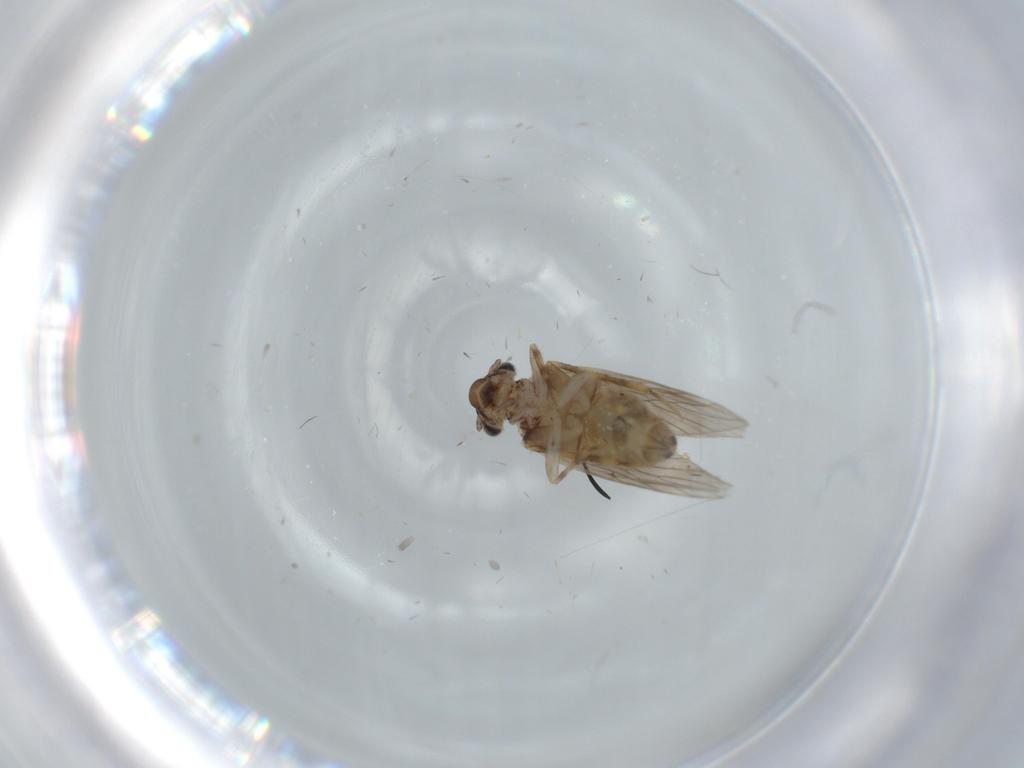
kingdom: Animalia
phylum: Arthropoda
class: Insecta
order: Psocodea
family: Lepidopsocidae
